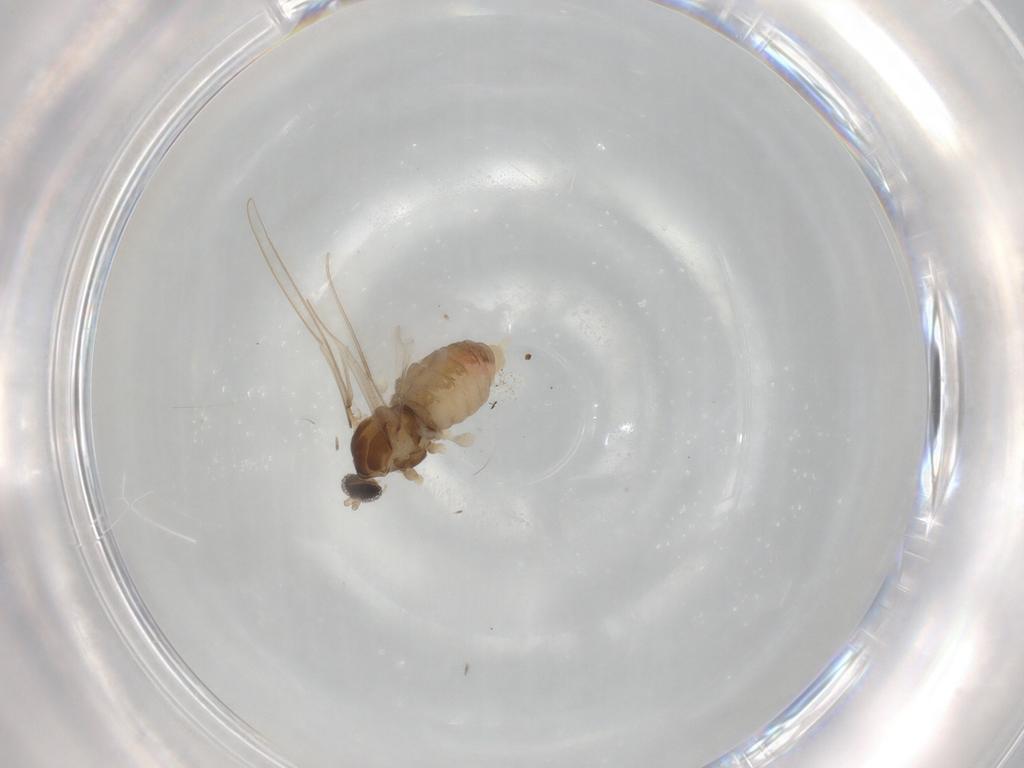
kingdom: Animalia
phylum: Arthropoda
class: Insecta
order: Diptera
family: Cecidomyiidae
